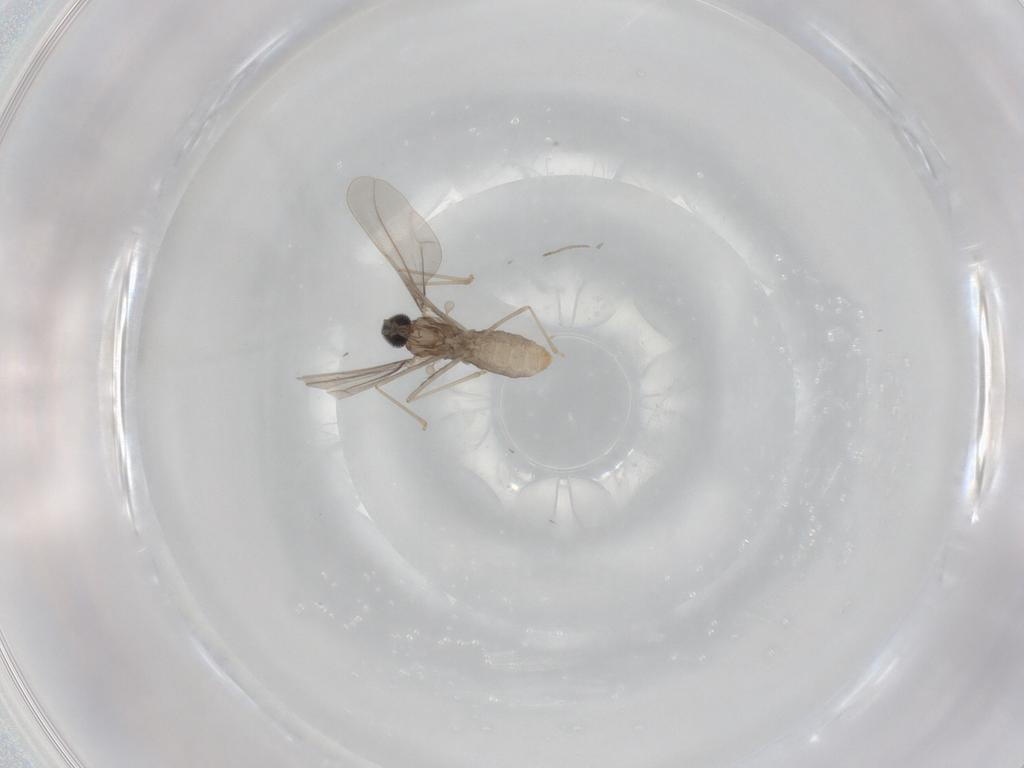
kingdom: Animalia
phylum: Arthropoda
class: Insecta
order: Diptera
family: Cecidomyiidae
